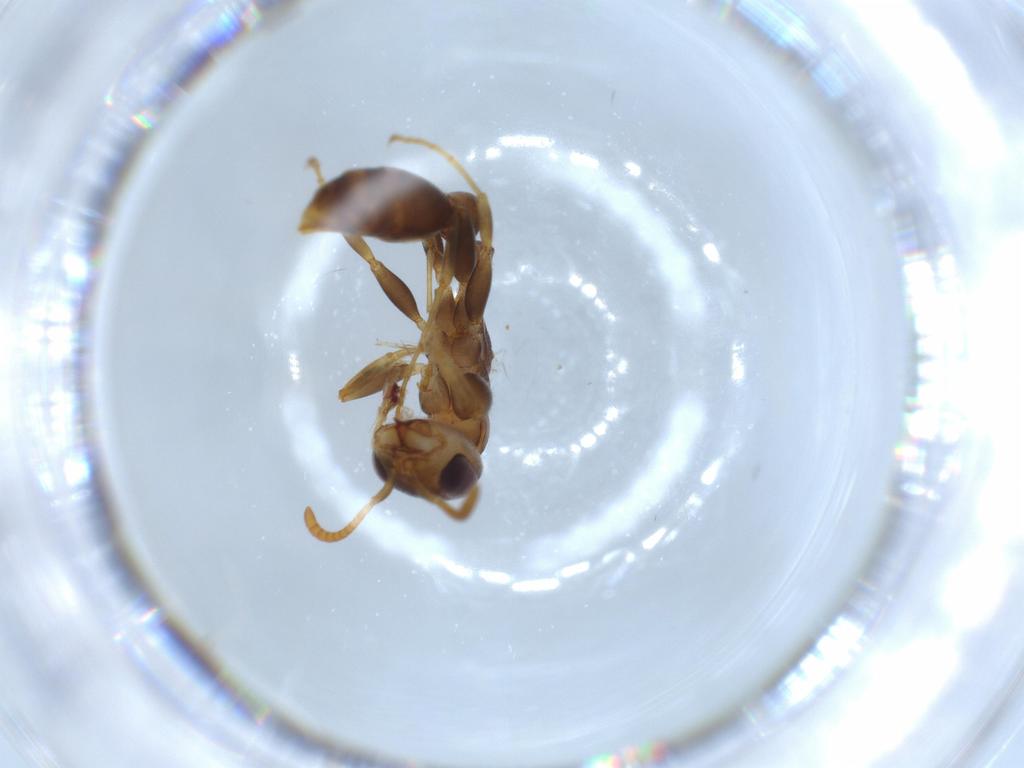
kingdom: Animalia
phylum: Arthropoda
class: Insecta
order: Hymenoptera
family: Formicidae
